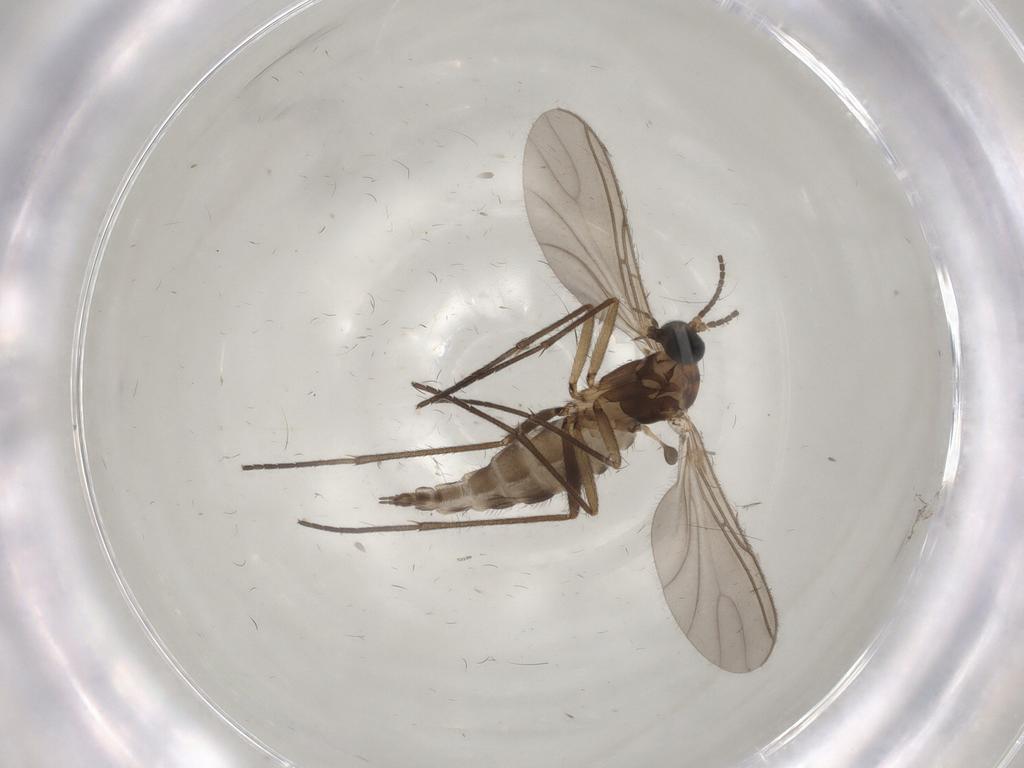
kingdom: Animalia
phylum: Arthropoda
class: Insecta
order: Diptera
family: Sciaridae
